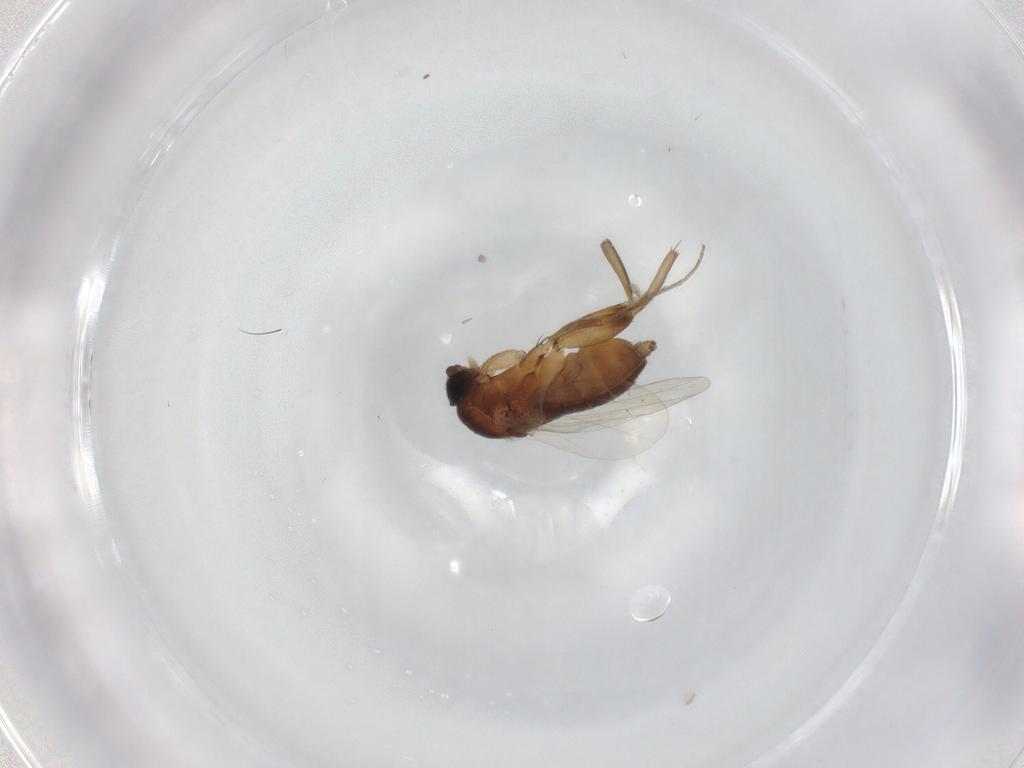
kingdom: Animalia
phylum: Arthropoda
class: Insecta
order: Diptera
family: Phoridae
